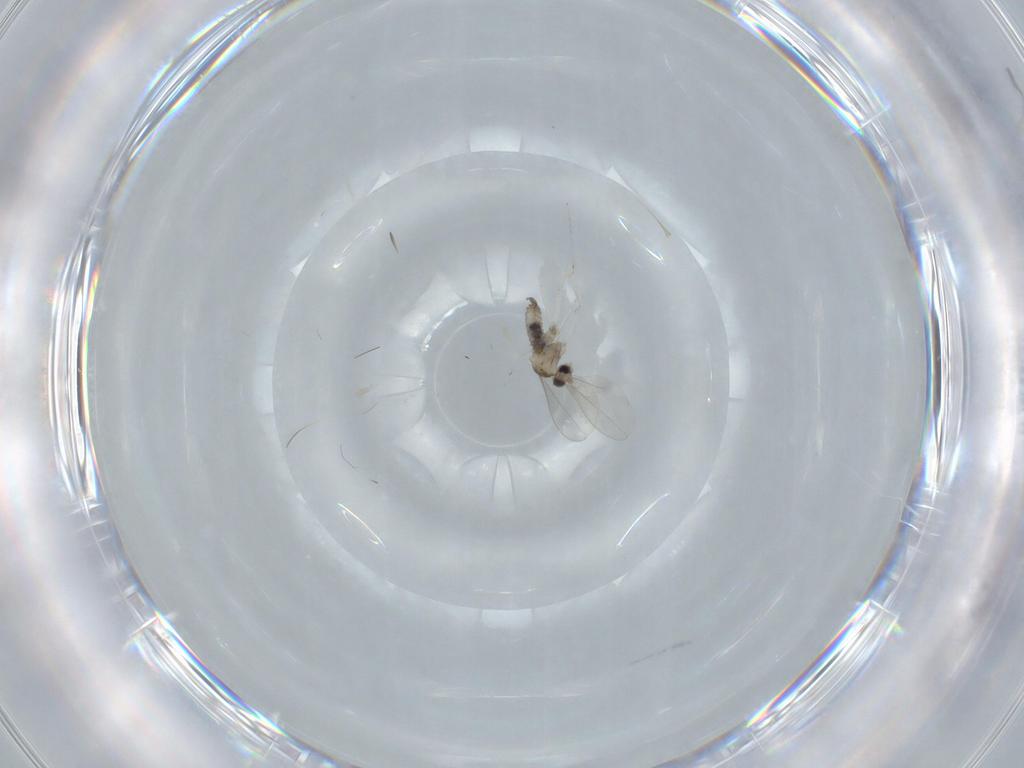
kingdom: Animalia
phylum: Arthropoda
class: Insecta
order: Diptera
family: Cecidomyiidae
